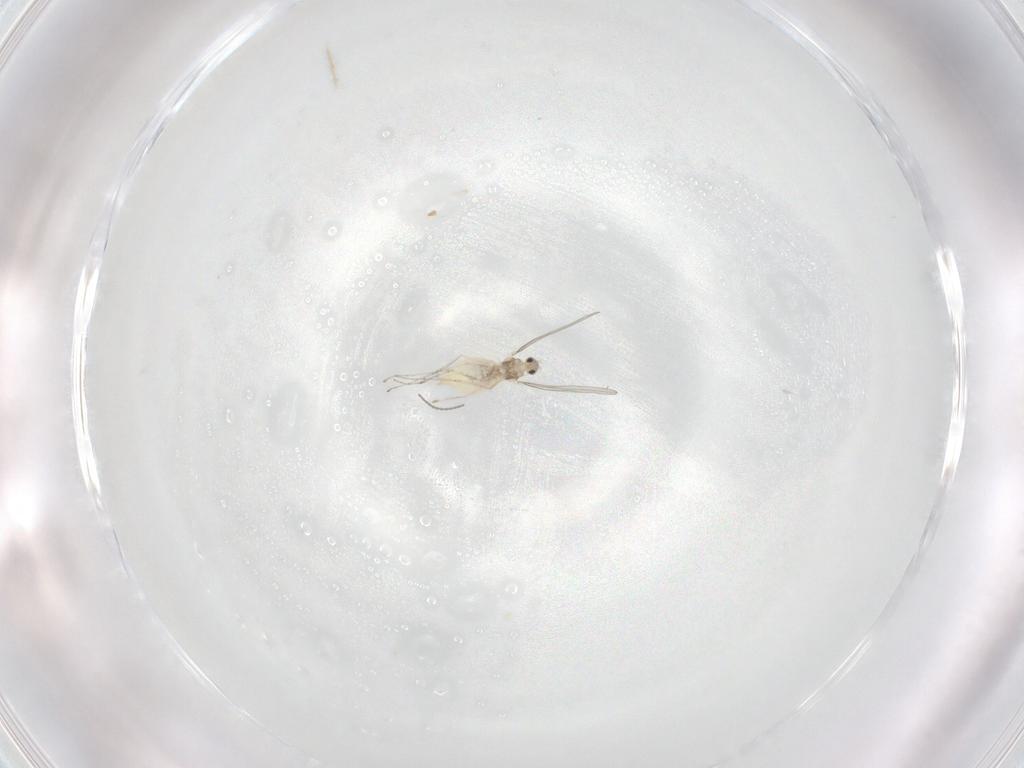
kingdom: Animalia
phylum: Arthropoda
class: Insecta
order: Diptera
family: Cecidomyiidae
